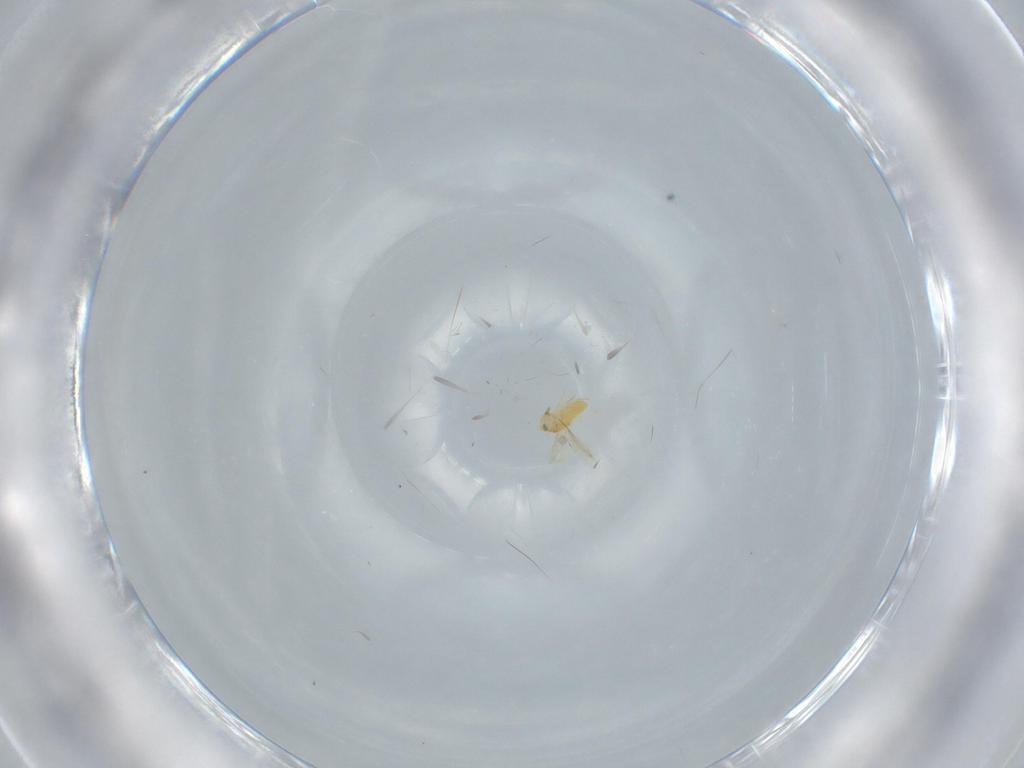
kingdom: Animalia
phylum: Arthropoda
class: Insecta
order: Hymenoptera
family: Aphelinidae
